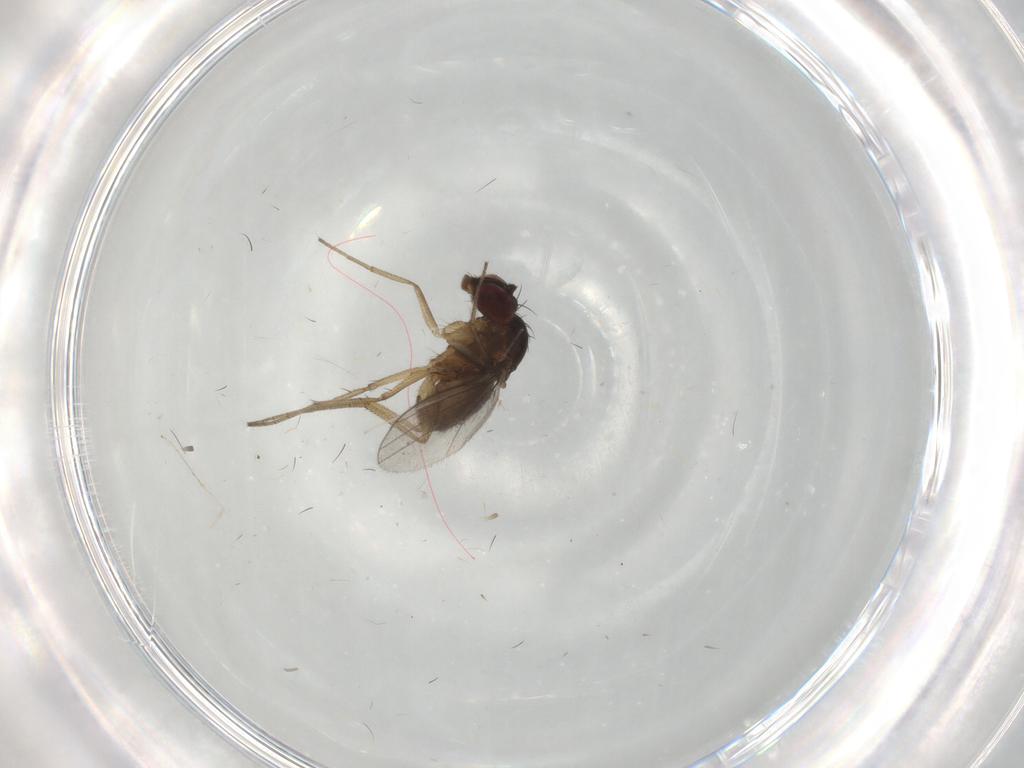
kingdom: Animalia
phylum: Arthropoda
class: Insecta
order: Diptera
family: Dolichopodidae
